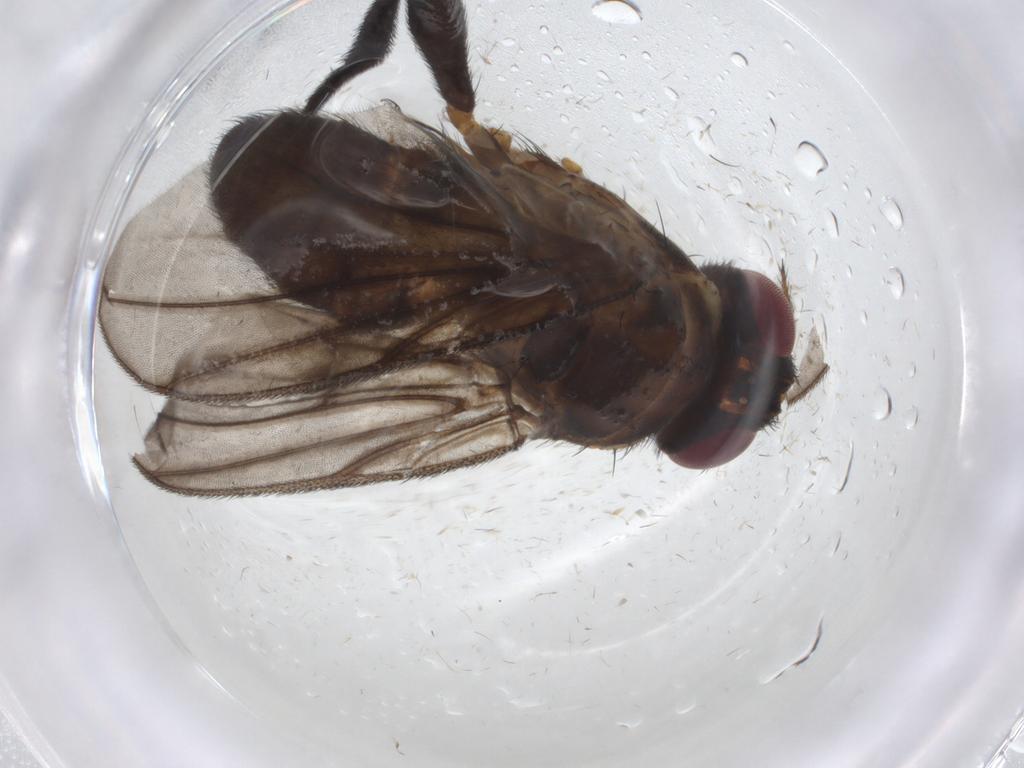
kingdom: Animalia
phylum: Arthropoda
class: Insecta
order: Diptera
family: Calliphoridae
